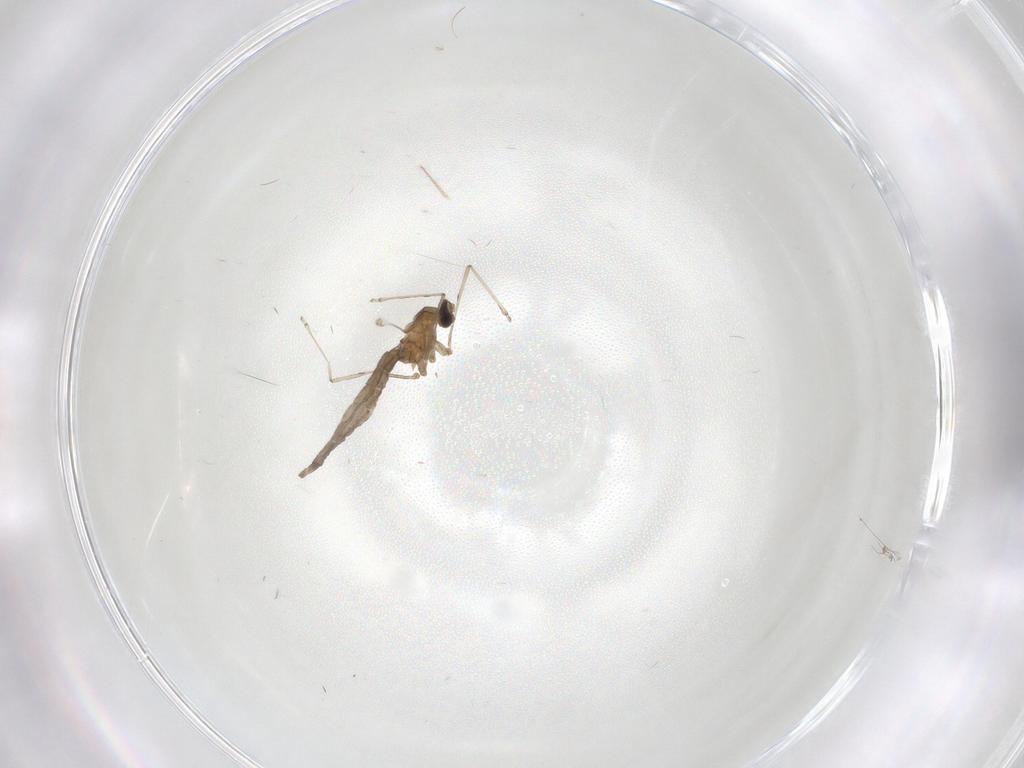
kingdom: Animalia
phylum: Arthropoda
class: Insecta
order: Diptera
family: Cecidomyiidae
